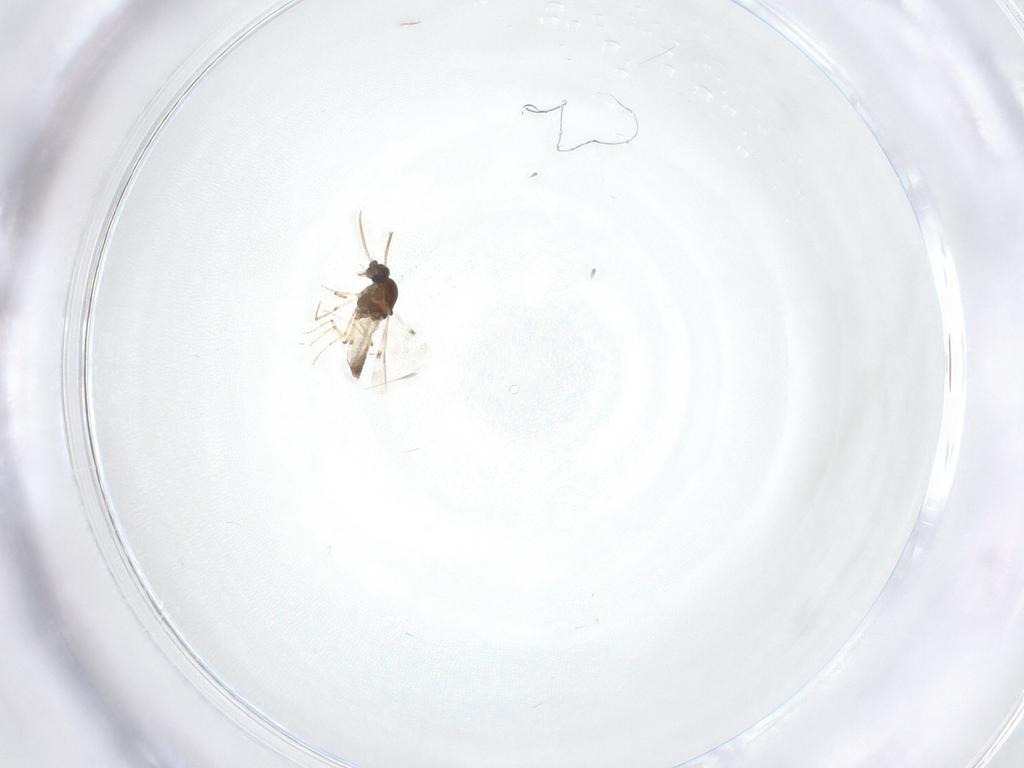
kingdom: Animalia
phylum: Arthropoda
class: Insecta
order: Diptera
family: Cecidomyiidae
